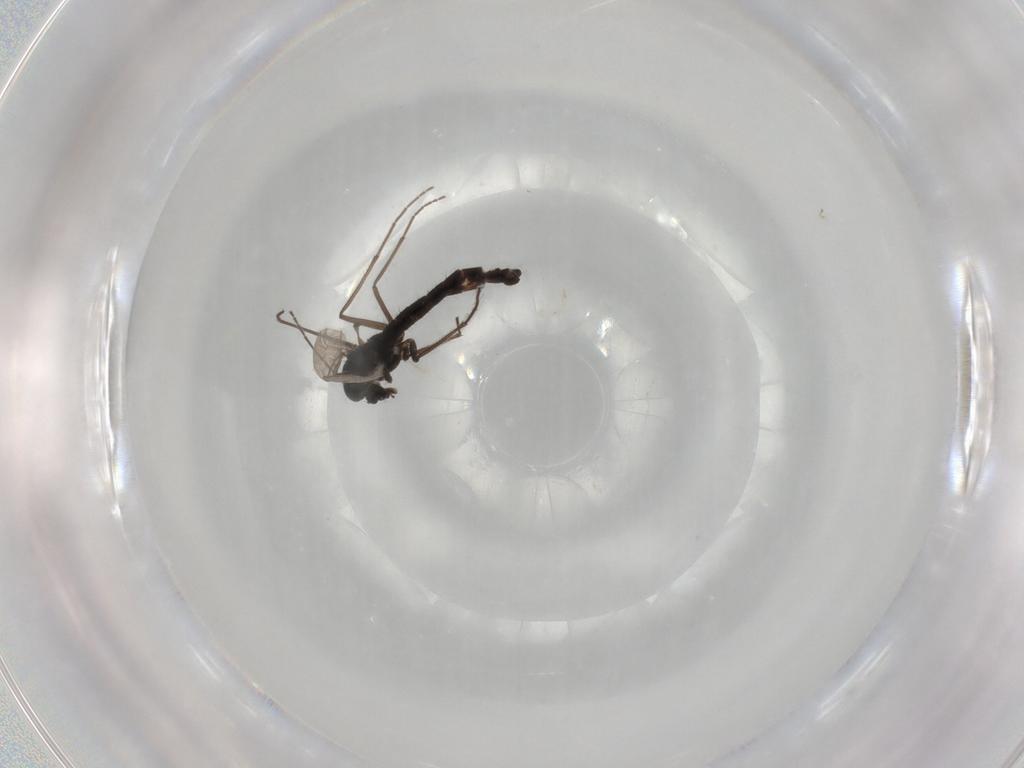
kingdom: Animalia
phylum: Arthropoda
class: Insecta
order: Diptera
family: Chironomidae
